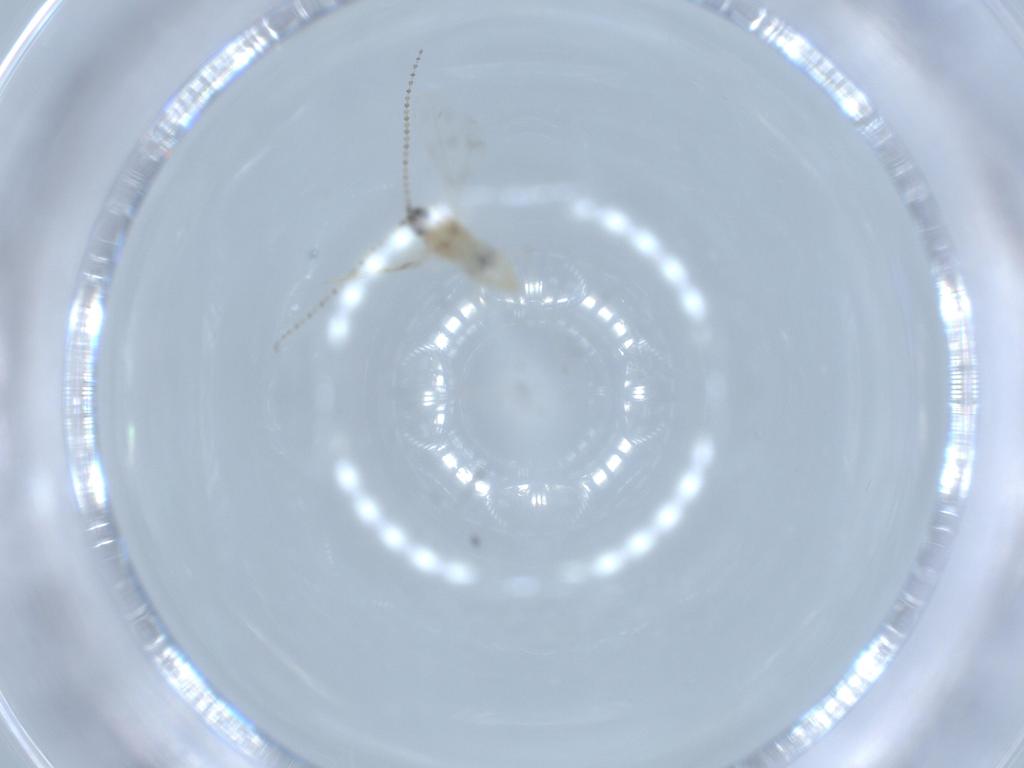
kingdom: Animalia
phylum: Arthropoda
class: Insecta
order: Diptera
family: Cecidomyiidae
